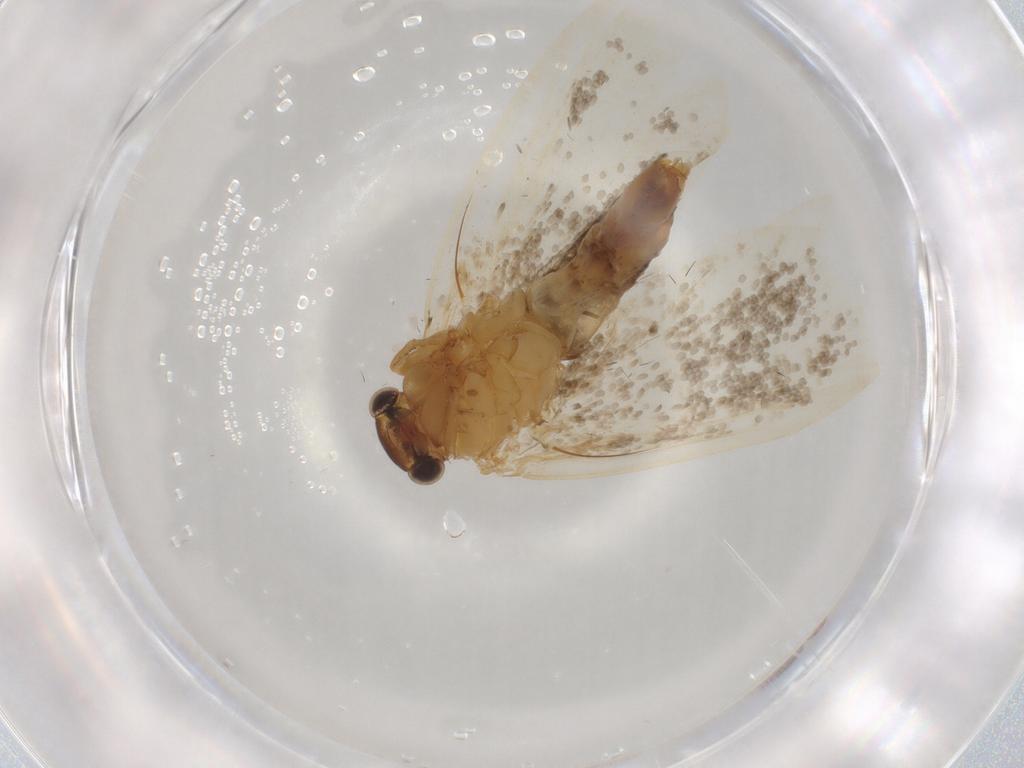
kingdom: Animalia
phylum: Arthropoda
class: Insecta
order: Lepidoptera
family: Nepticulidae
